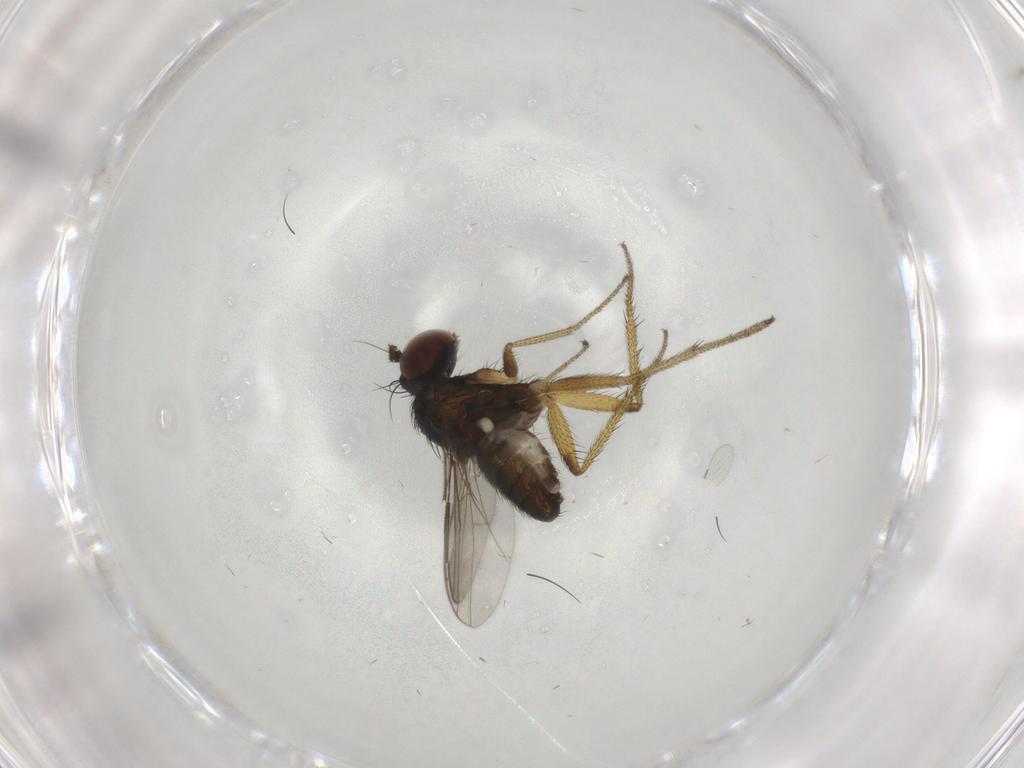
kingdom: Animalia
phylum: Arthropoda
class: Insecta
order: Diptera
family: Dolichopodidae
